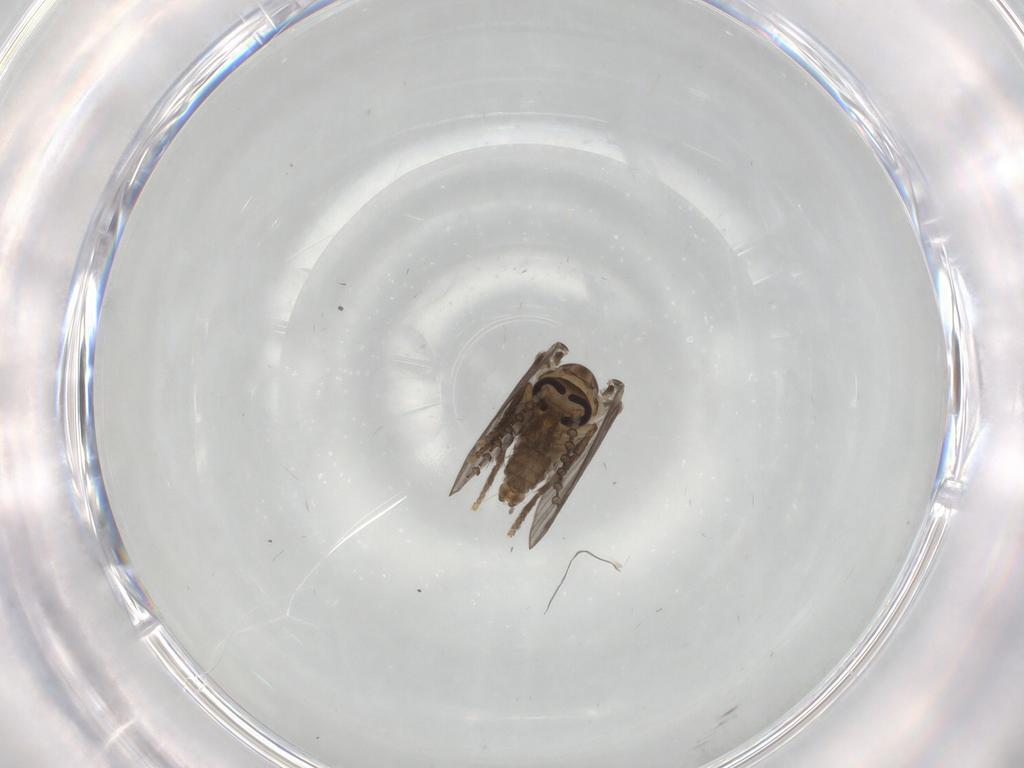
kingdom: Animalia
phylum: Arthropoda
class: Insecta
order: Diptera
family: Psychodidae
